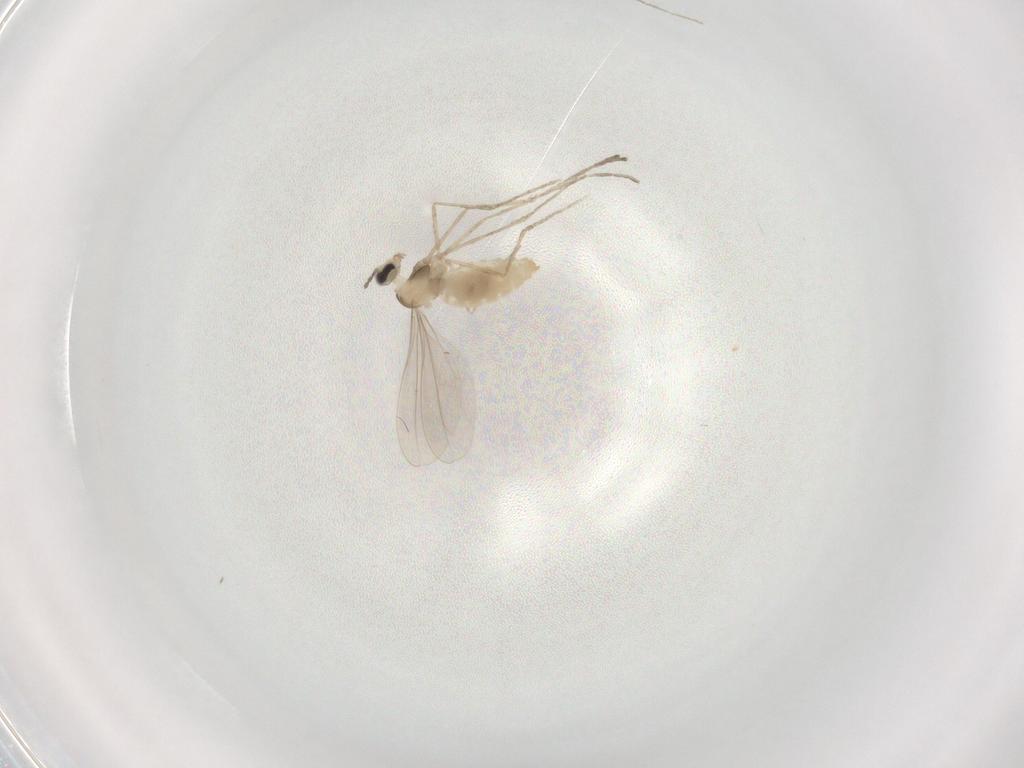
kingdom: Animalia
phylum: Arthropoda
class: Insecta
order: Diptera
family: Cecidomyiidae
